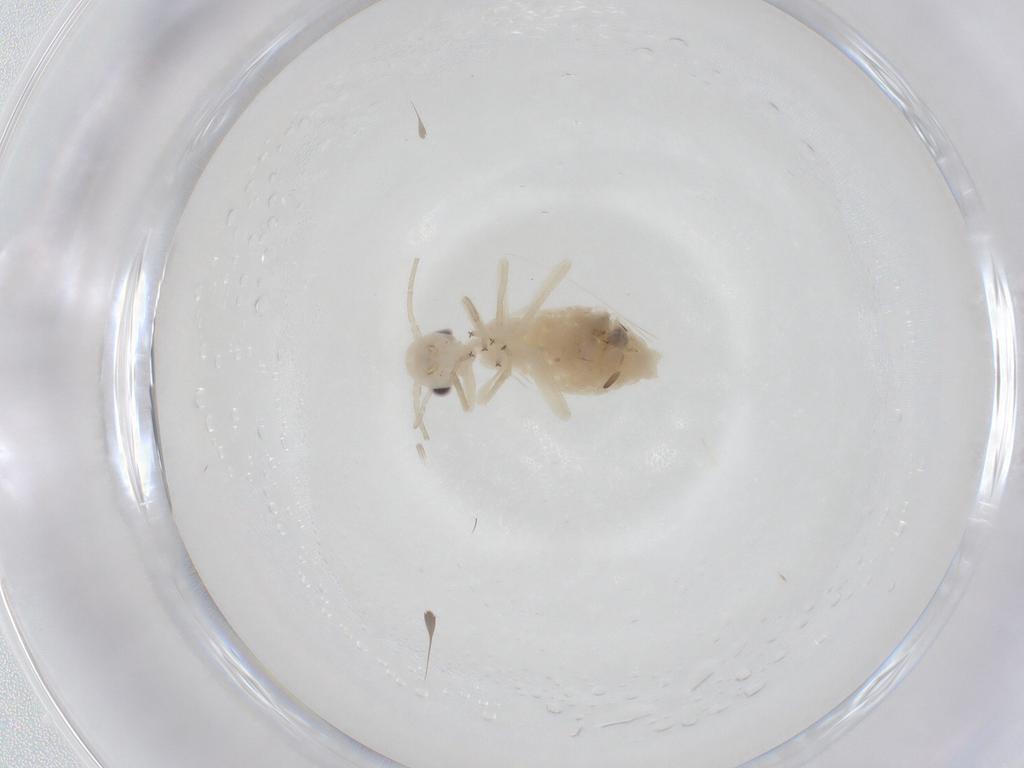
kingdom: Animalia
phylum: Arthropoda
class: Insecta
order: Psocodea
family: Caeciliusidae
